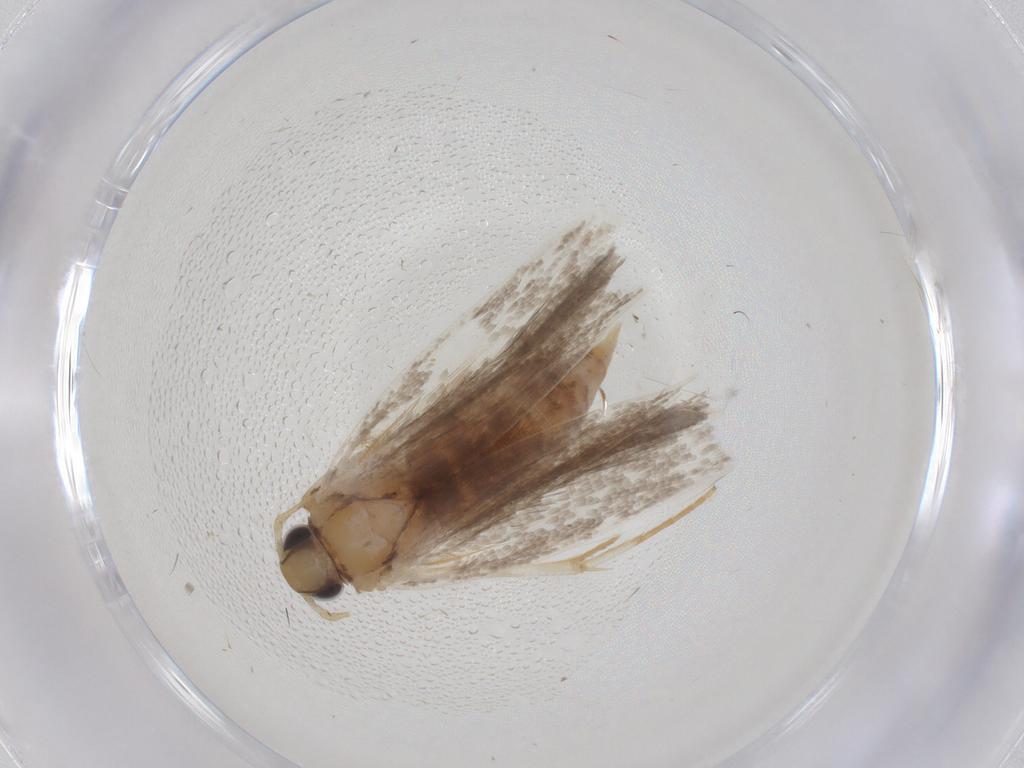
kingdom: Animalia
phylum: Arthropoda
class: Insecta
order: Lepidoptera
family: Gelechiidae
